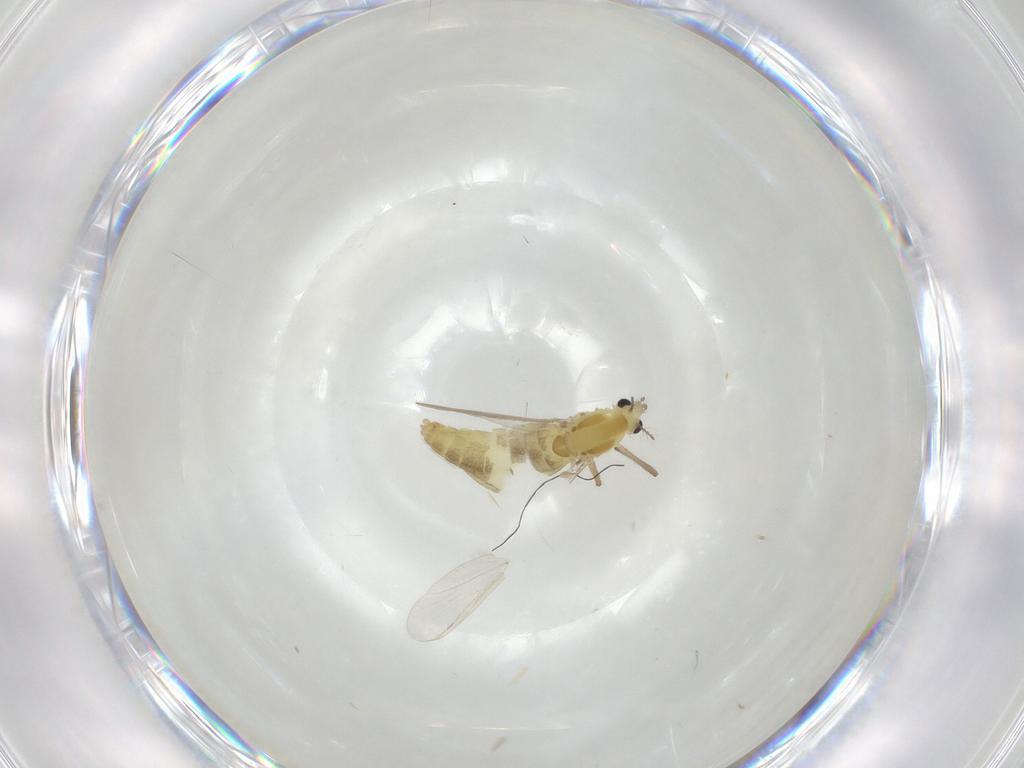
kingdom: Animalia
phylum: Arthropoda
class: Insecta
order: Diptera
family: Chironomidae
